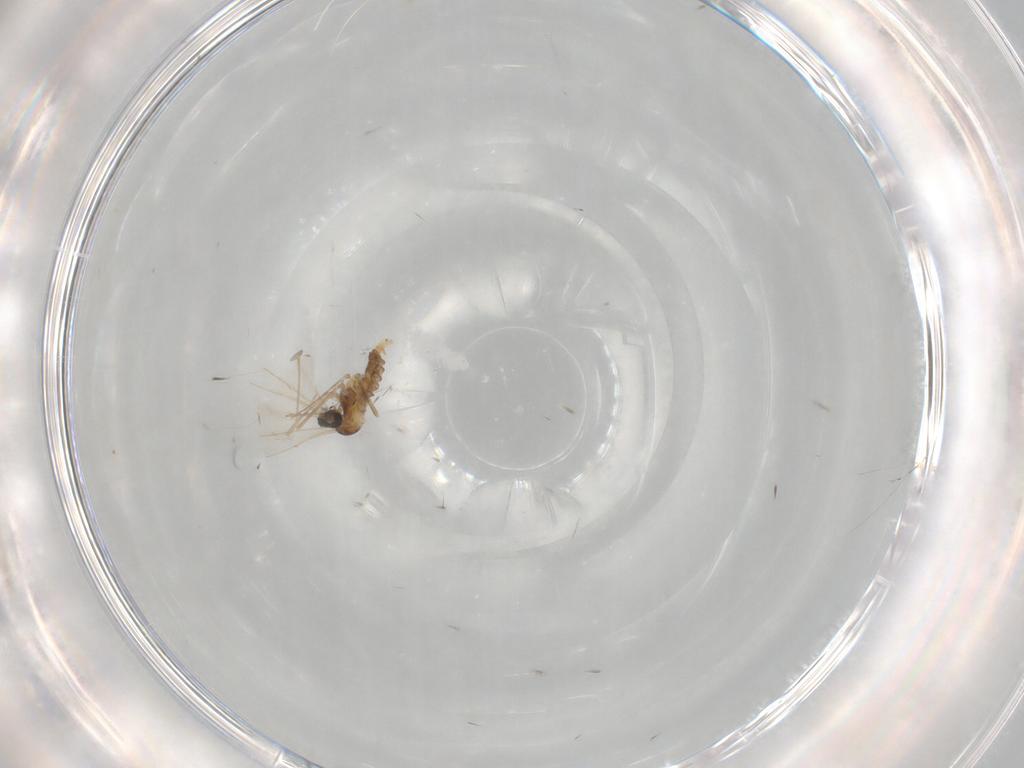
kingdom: Animalia
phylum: Arthropoda
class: Insecta
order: Diptera
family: Cecidomyiidae
